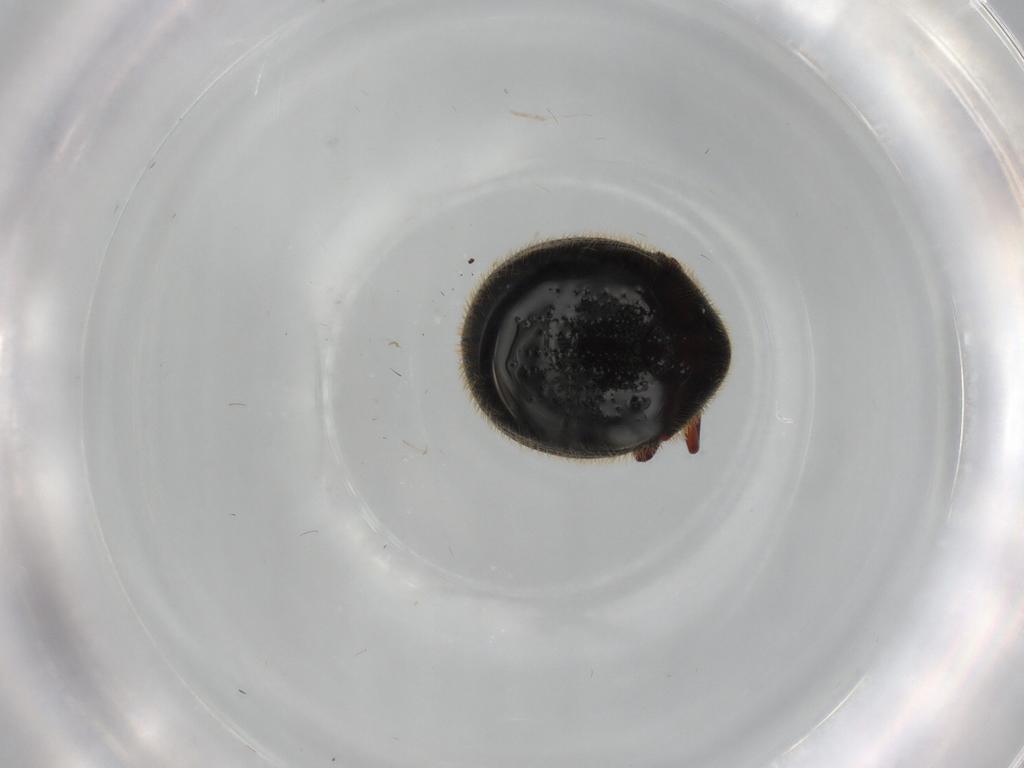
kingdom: Animalia
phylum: Arthropoda
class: Insecta
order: Coleoptera
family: Anobiidae
